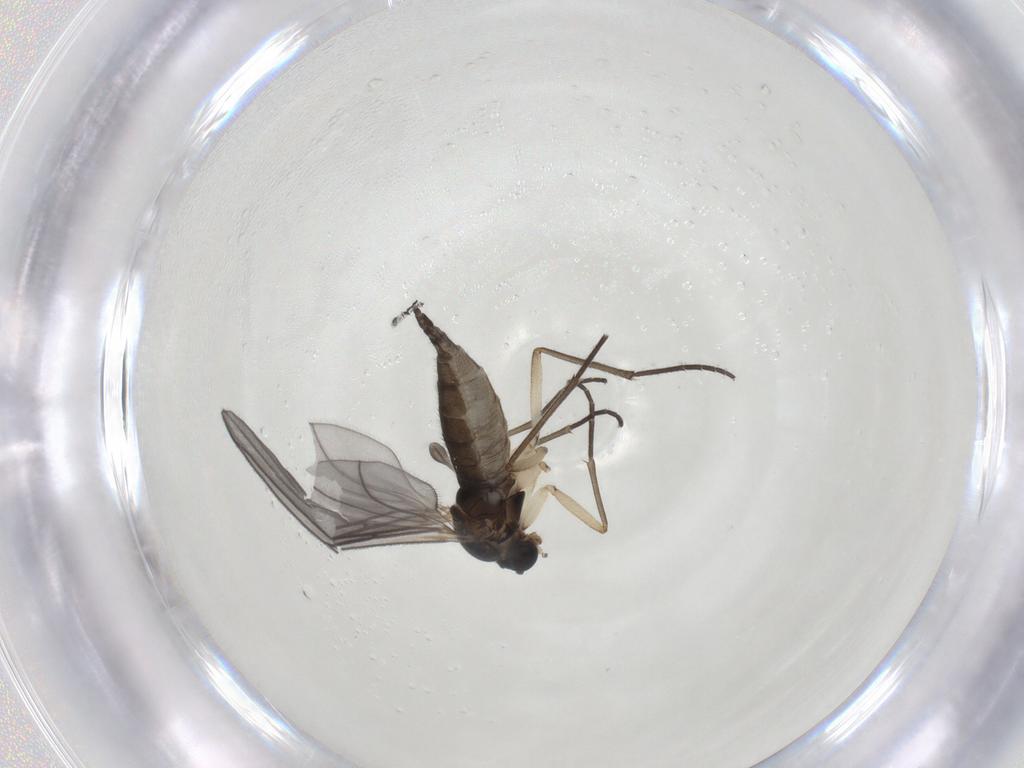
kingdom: Animalia
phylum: Arthropoda
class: Insecta
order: Diptera
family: Sciaridae
